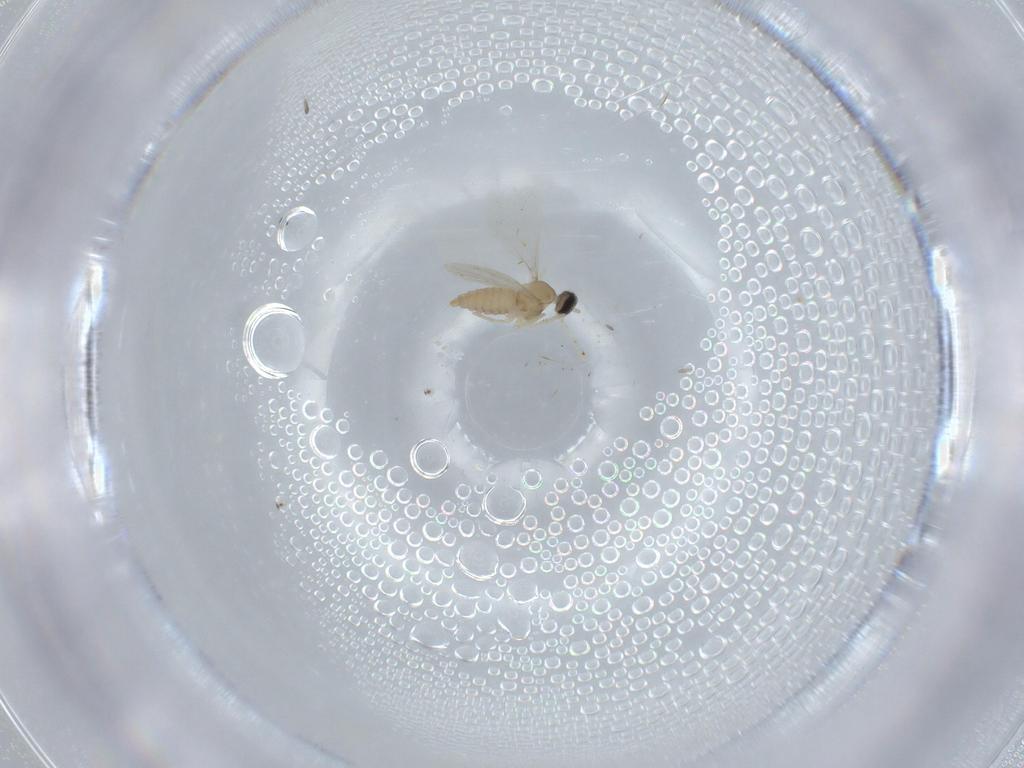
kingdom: Animalia
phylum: Arthropoda
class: Insecta
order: Diptera
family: Cecidomyiidae
